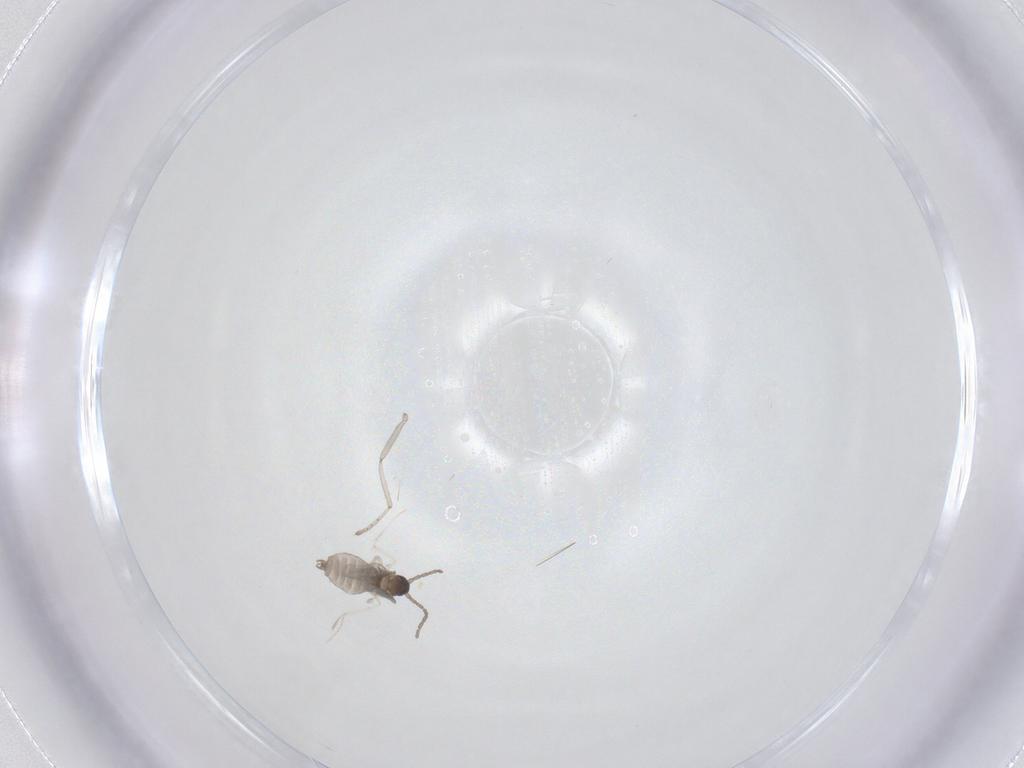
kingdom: Animalia
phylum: Arthropoda
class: Insecta
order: Diptera
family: Cecidomyiidae
